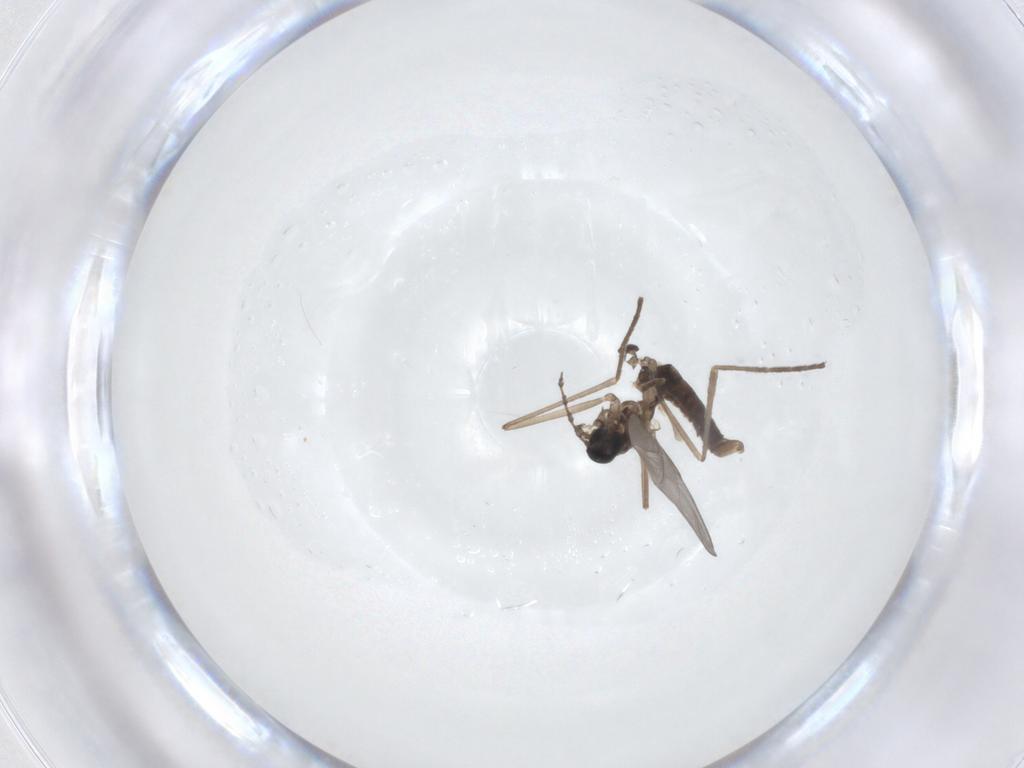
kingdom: Animalia
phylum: Arthropoda
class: Insecta
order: Diptera
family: Cecidomyiidae
